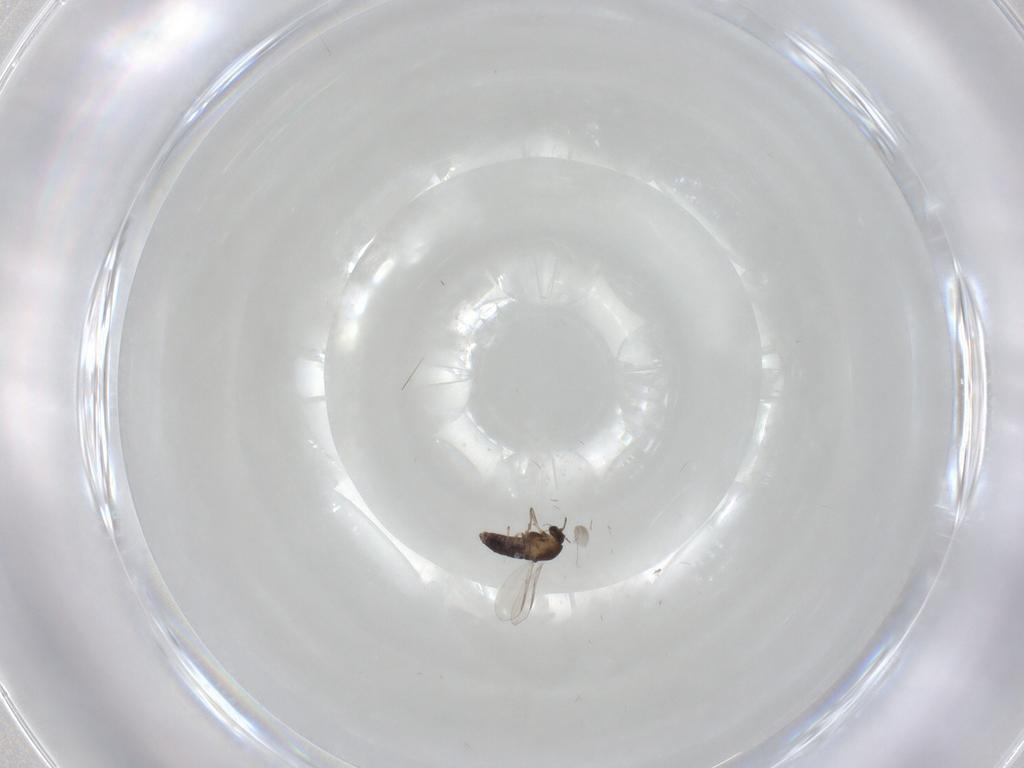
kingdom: Animalia
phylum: Arthropoda
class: Insecta
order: Diptera
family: Chironomidae
